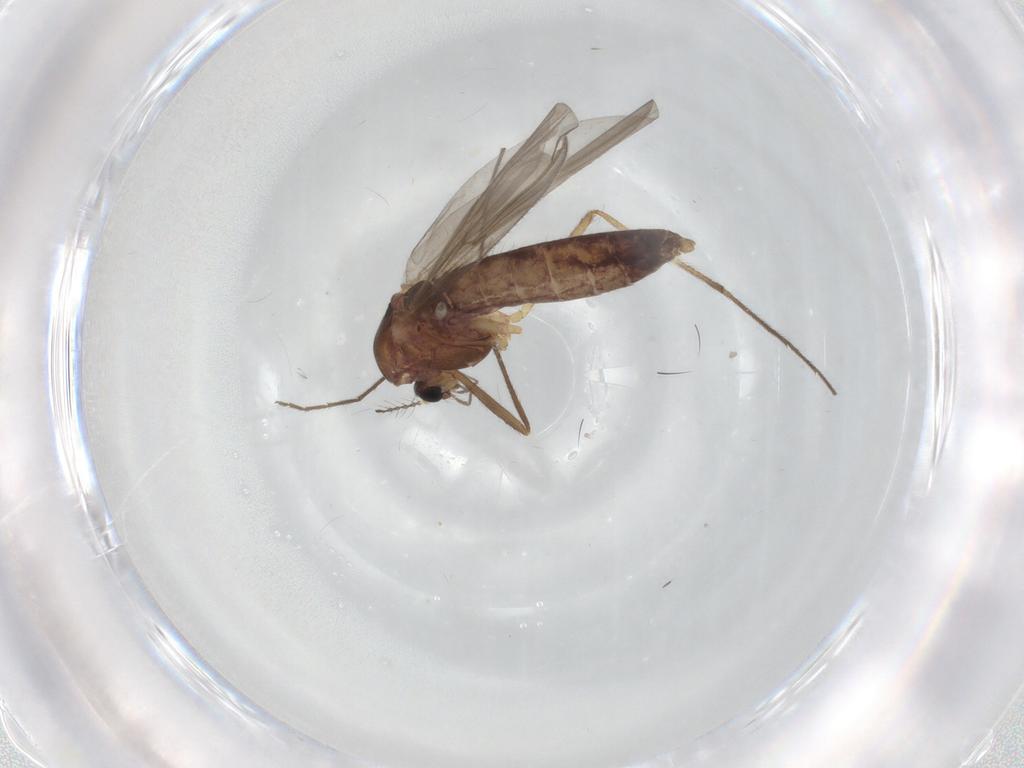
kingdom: Animalia
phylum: Arthropoda
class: Insecta
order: Diptera
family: Chironomidae
